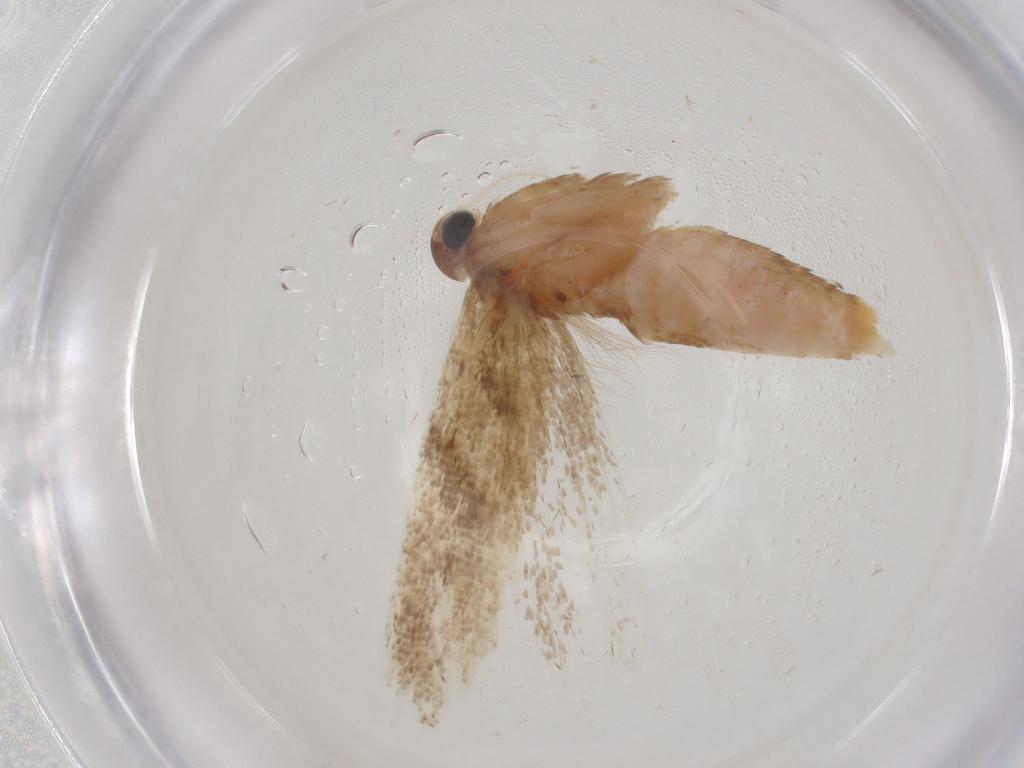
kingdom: Animalia
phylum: Arthropoda
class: Insecta
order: Lepidoptera
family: Gelechiidae
